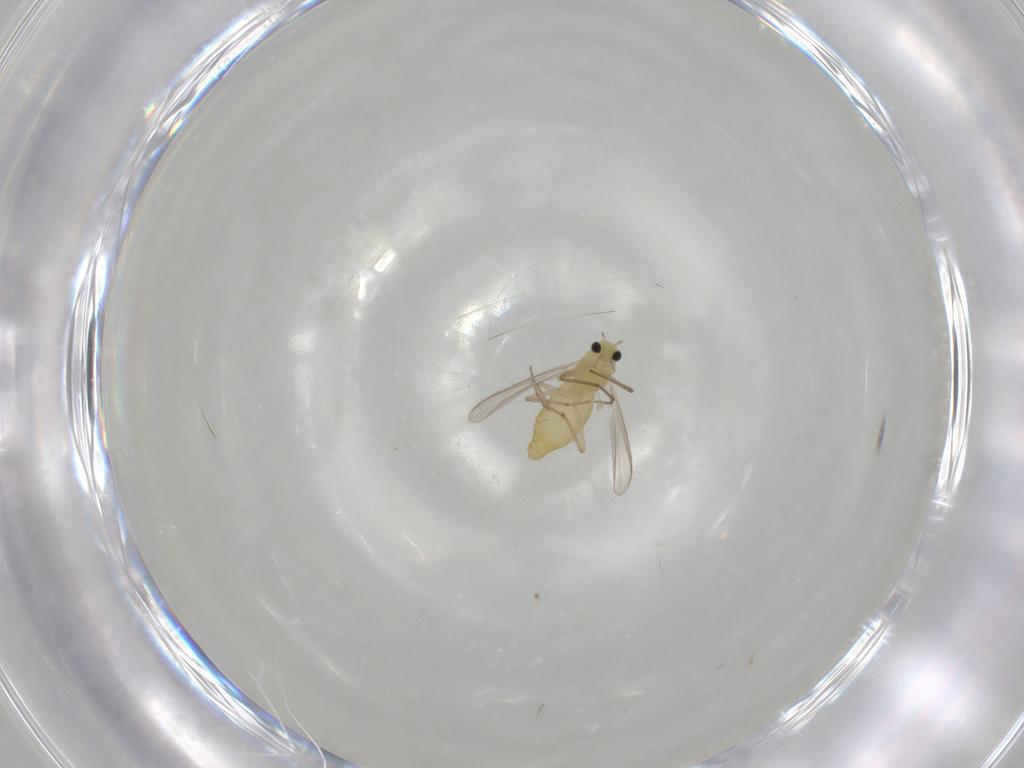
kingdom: Animalia
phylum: Arthropoda
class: Insecta
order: Diptera
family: Chironomidae
